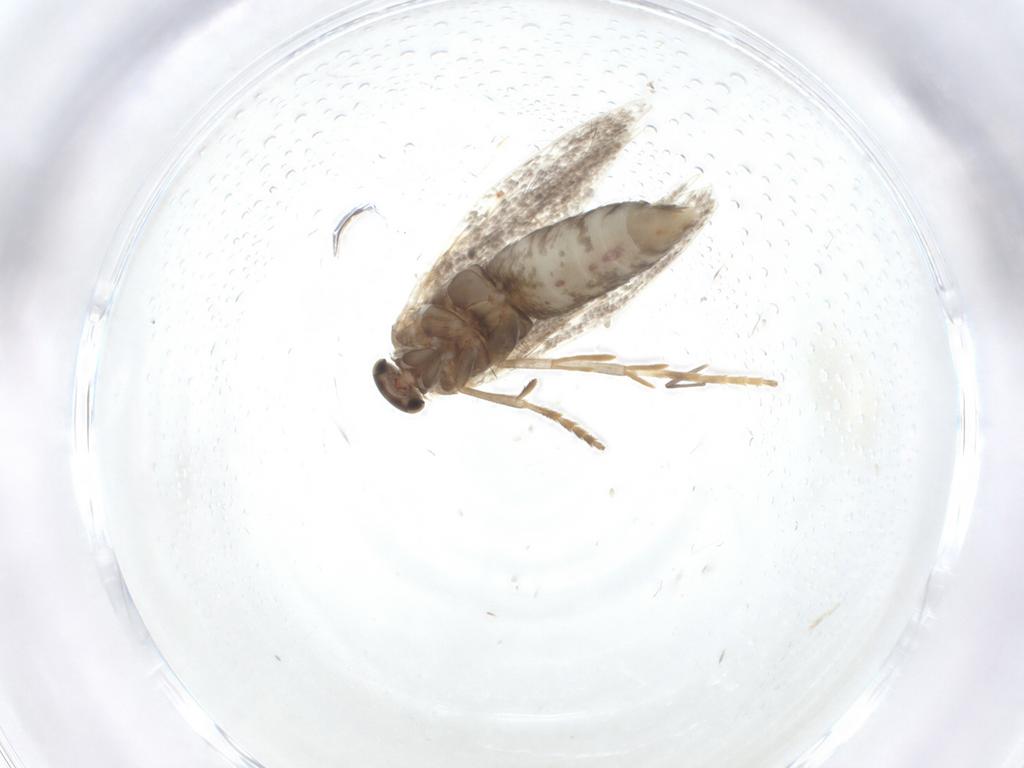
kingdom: Animalia
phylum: Arthropoda
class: Insecta
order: Lepidoptera
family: Elachistidae
